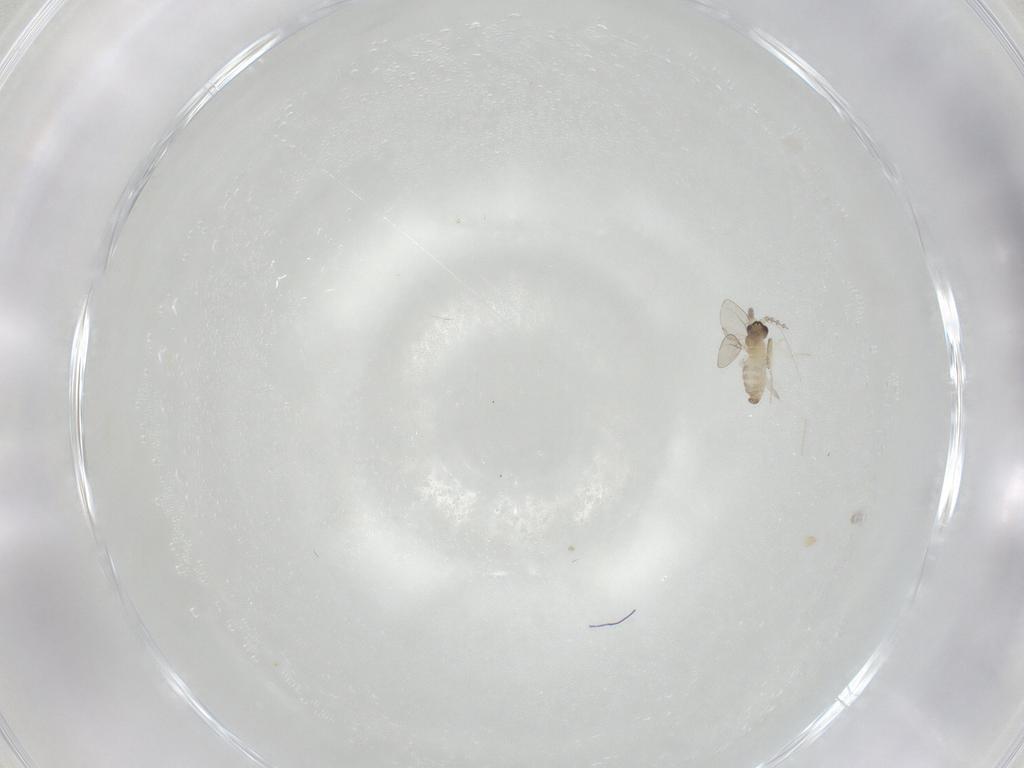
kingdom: Animalia
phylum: Arthropoda
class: Insecta
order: Diptera
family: Cecidomyiidae
